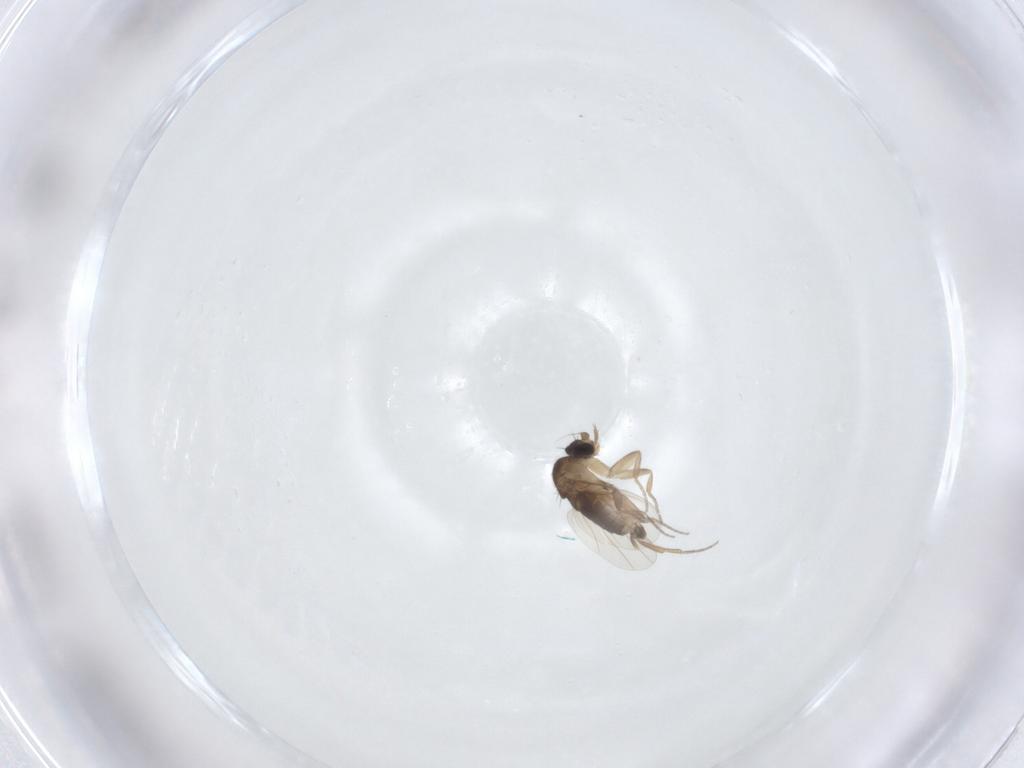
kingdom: Animalia
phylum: Arthropoda
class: Insecta
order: Diptera
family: Phoridae
